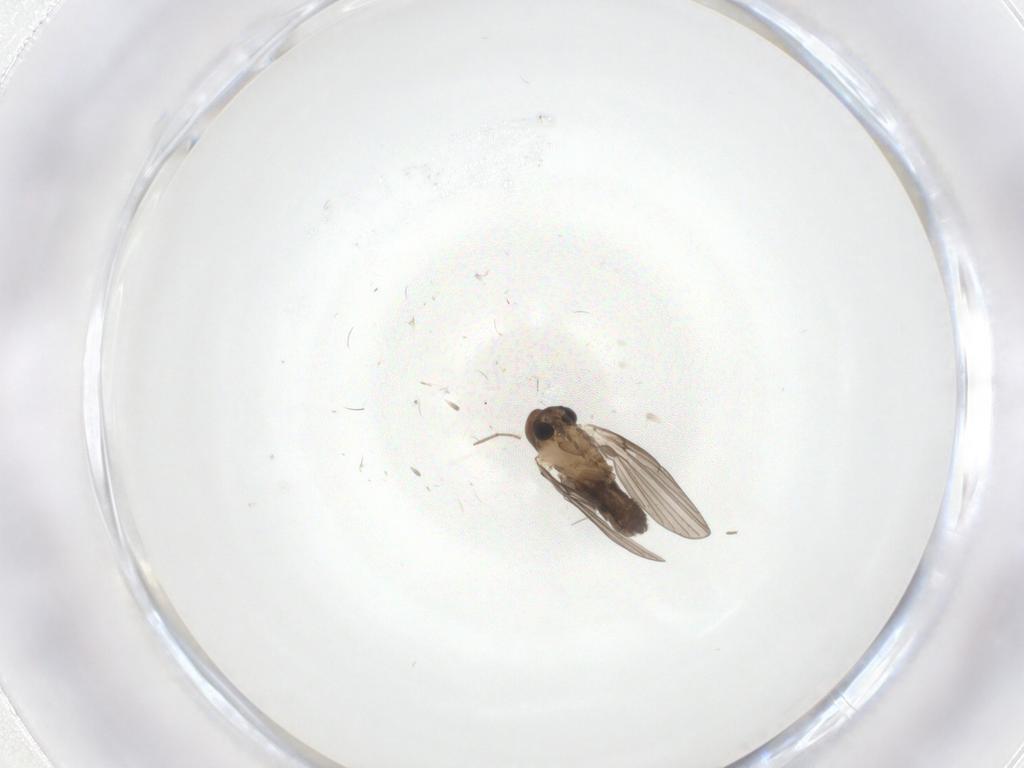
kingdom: Animalia
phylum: Arthropoda
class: Insecta
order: Diptera
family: Cecidomyiidae
